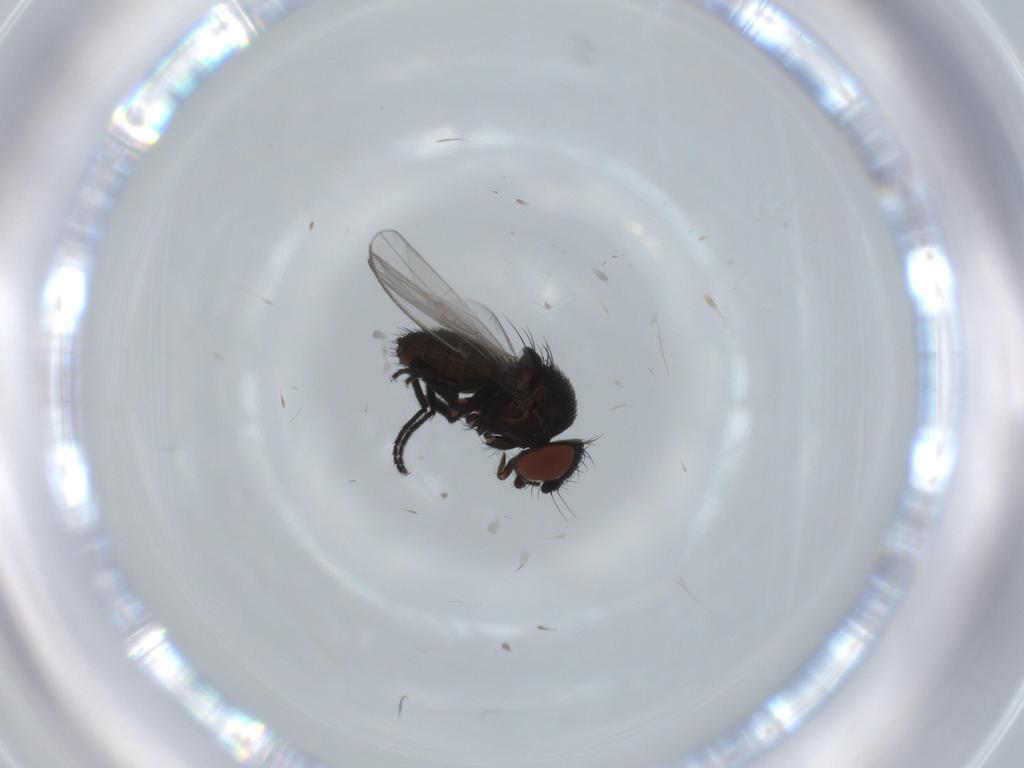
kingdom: Animalia
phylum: Arthropoda
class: Insecta
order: Diptera
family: Milichiidae
